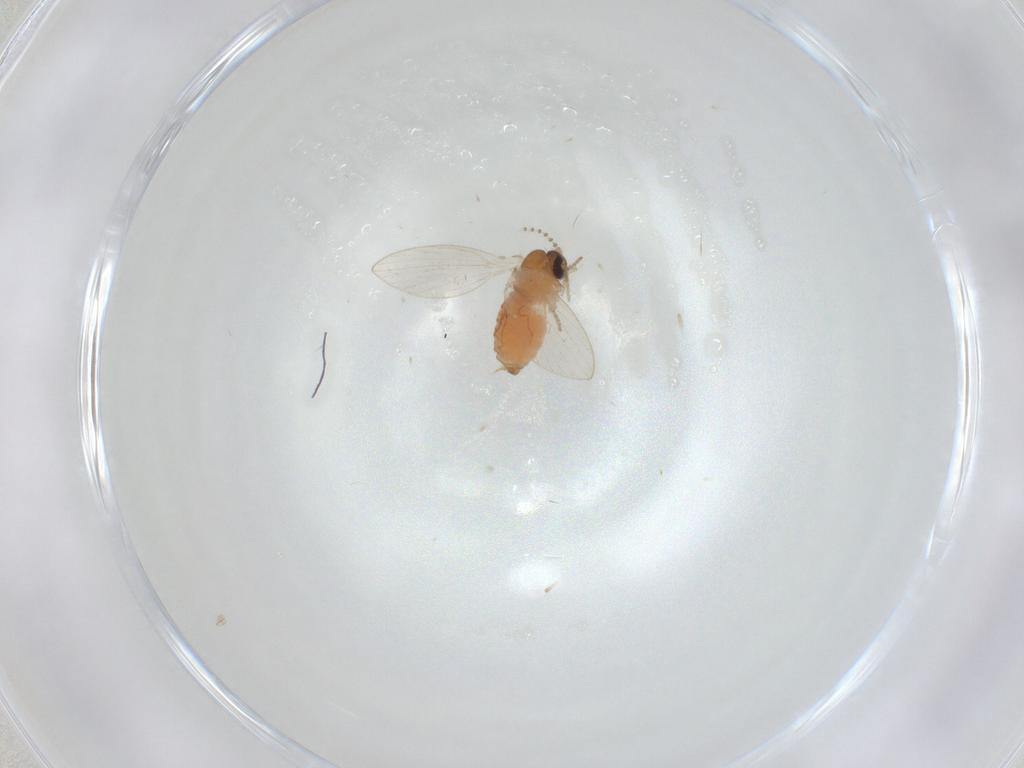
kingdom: Animalia
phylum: Arthropoda
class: Insecta
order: Diptera
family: Psychodidae
